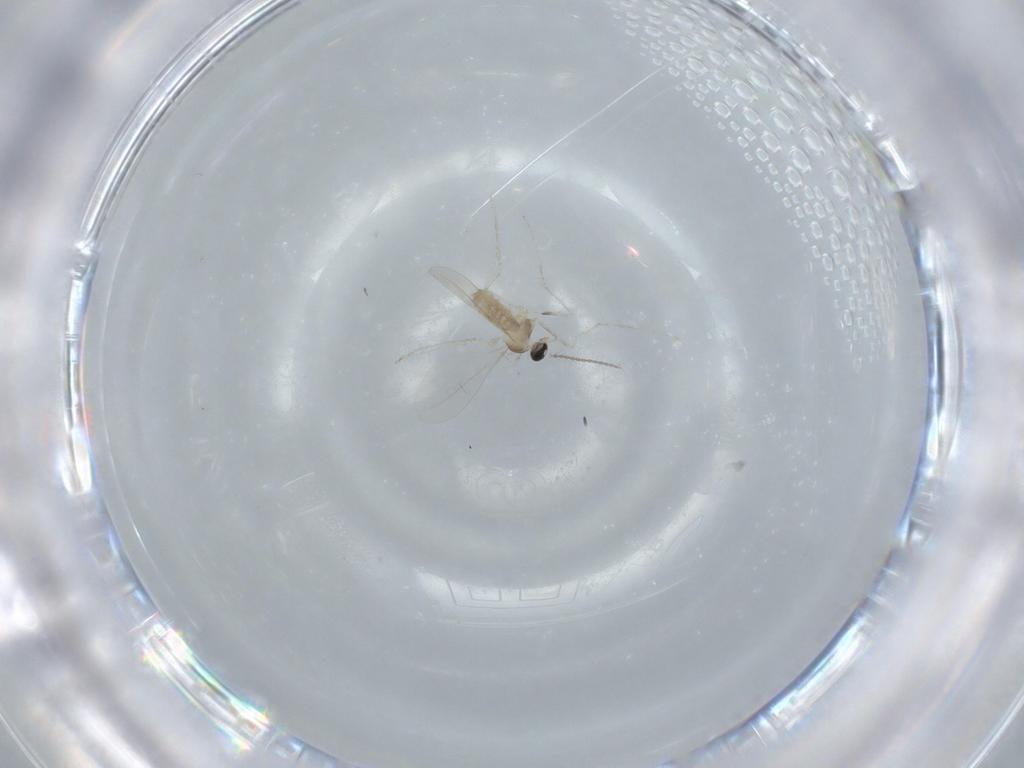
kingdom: Animalia
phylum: Arthropoda
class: Insecta
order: Diptera
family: Cecidomyiidae
